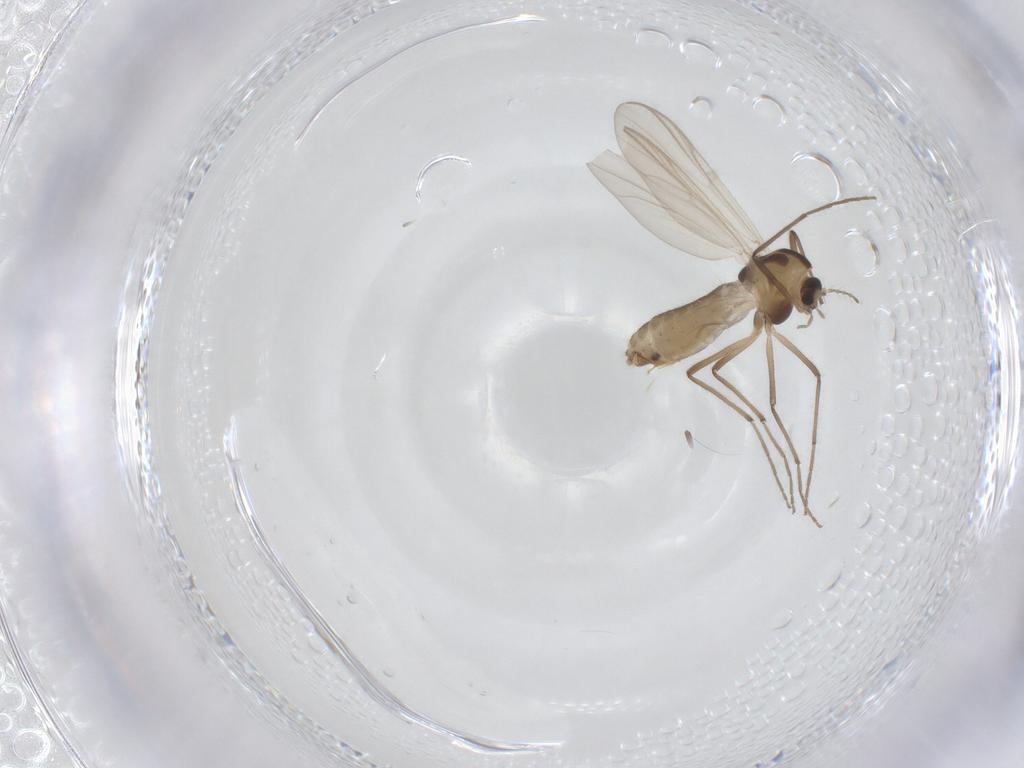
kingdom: Animalia
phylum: Arthropoda
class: Insecta
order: Diptera
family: Chironomidae
